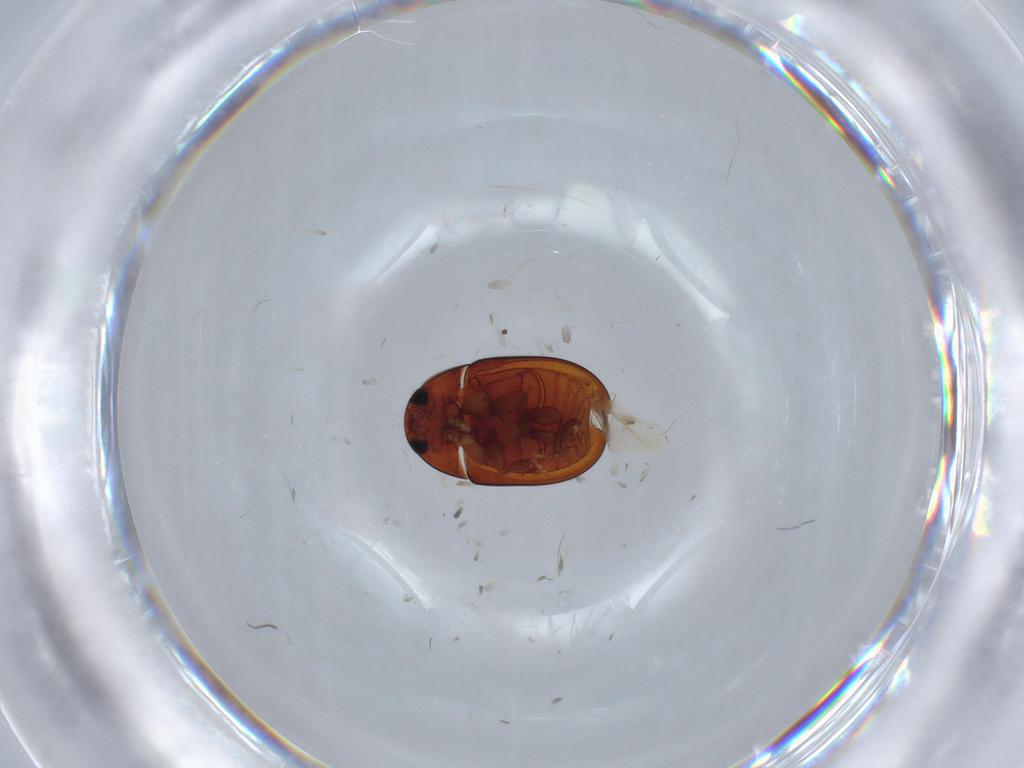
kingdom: Animalia
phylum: Arthropoda
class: Insecta
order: Coleoptera
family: Phalacridae
